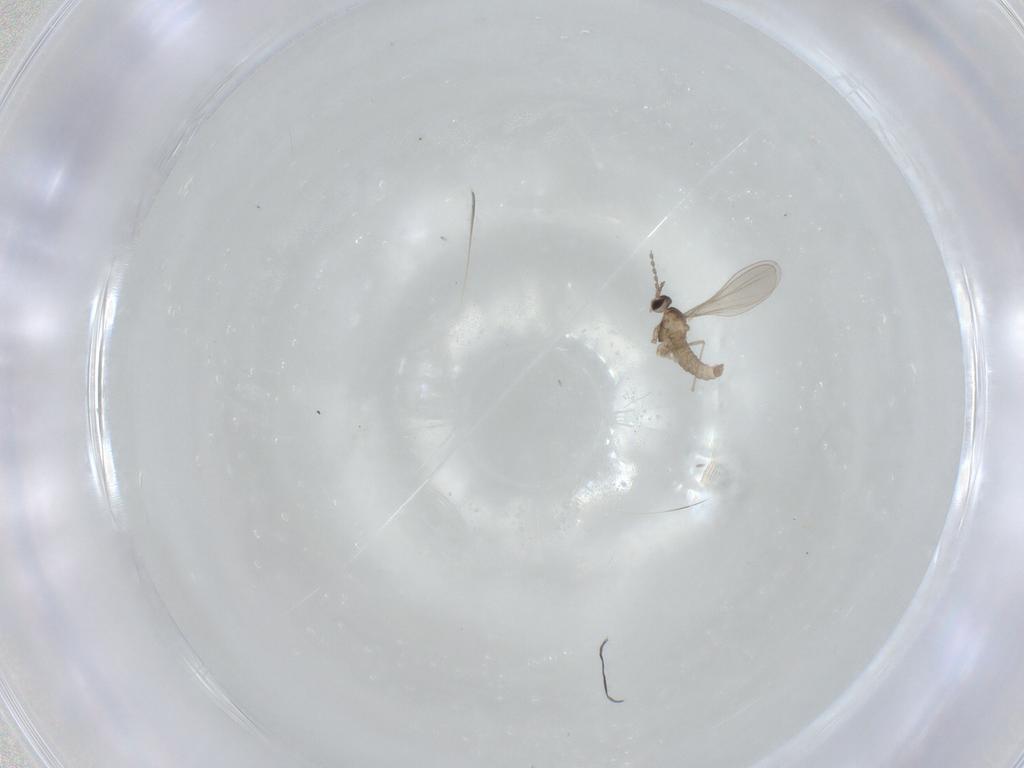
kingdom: Animalia
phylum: Arthropoda
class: Insecta
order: Diptera
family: Cecidomyiidae
